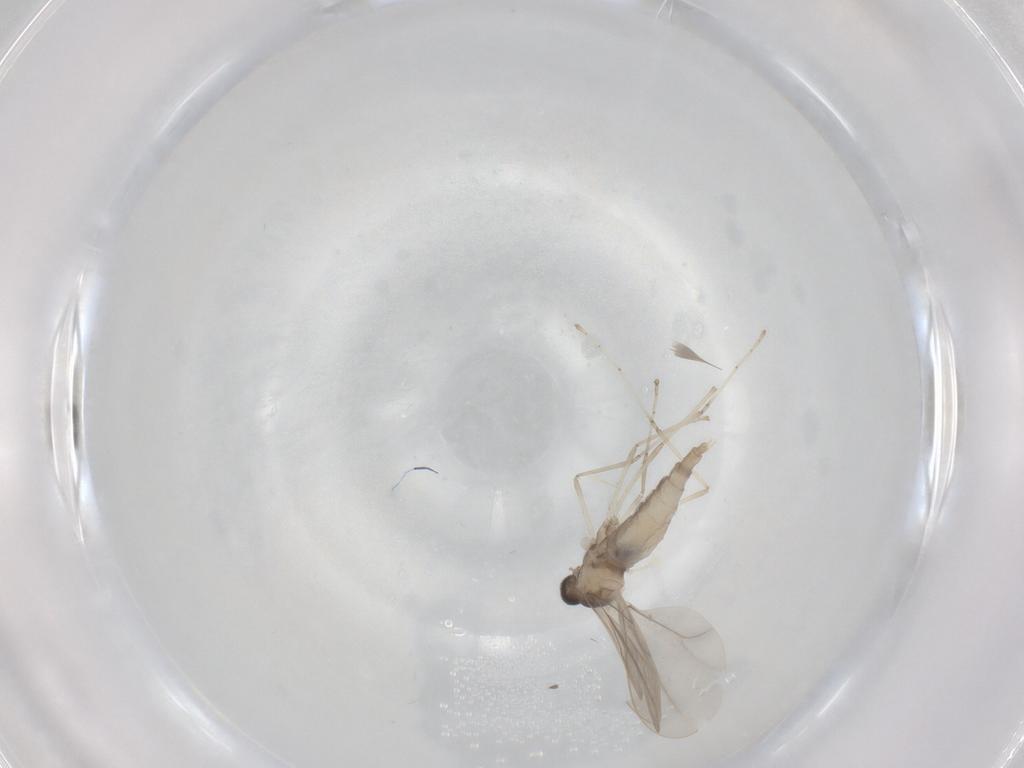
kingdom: Animalia
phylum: Arthropoda
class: Insecta
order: Diptera
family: Cecidomyiidae
